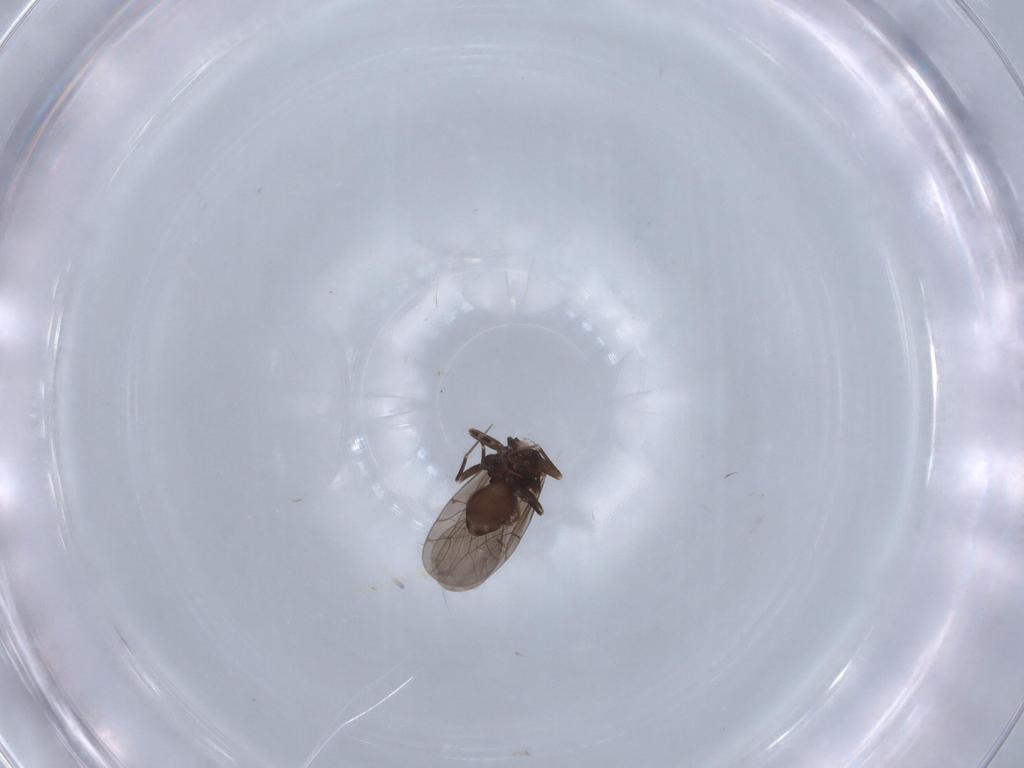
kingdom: Animalia
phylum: Arthropoda
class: Insecta
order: Psocodea
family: Lepidopsocidae
